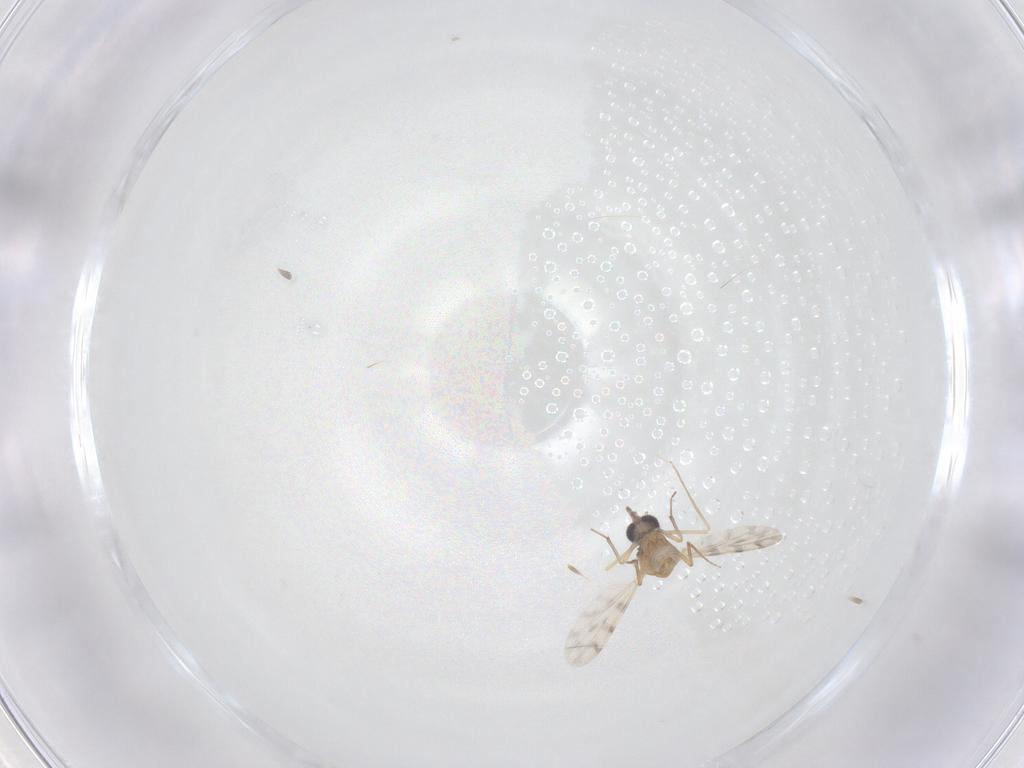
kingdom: Animalia
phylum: Arthropoda
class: Insecta
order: Diptera
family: Ceratopogonidae
